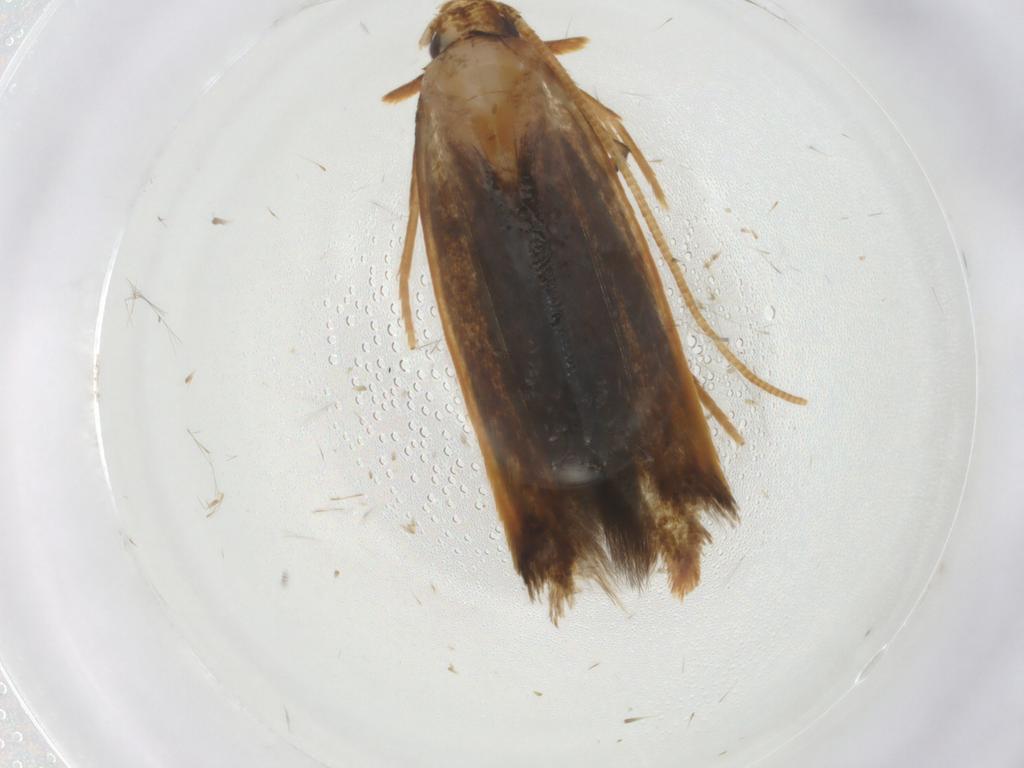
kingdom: Animalia
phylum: Arthropoda
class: Insecta
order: Lepidoptera
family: Tineidae
